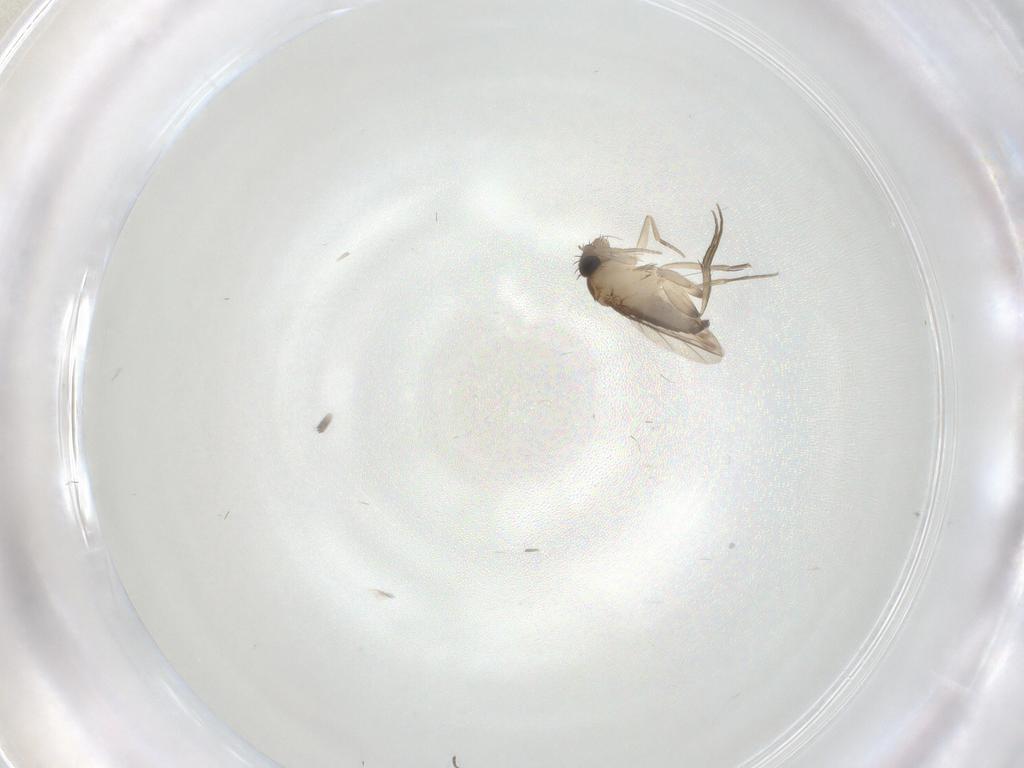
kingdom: Animalia
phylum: Arthropoda
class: Insecta
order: Diptera
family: Phoridae
